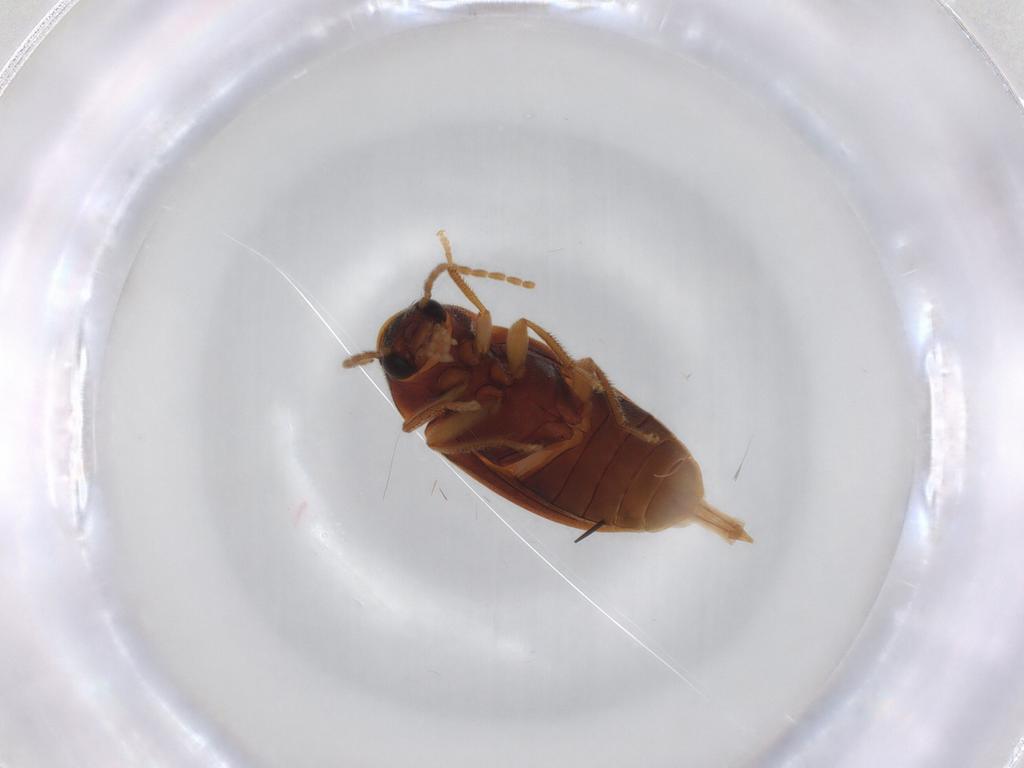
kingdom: Animalia
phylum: Arthropoda
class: Insecta
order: Coleoptera
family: Ptilodactylidae
